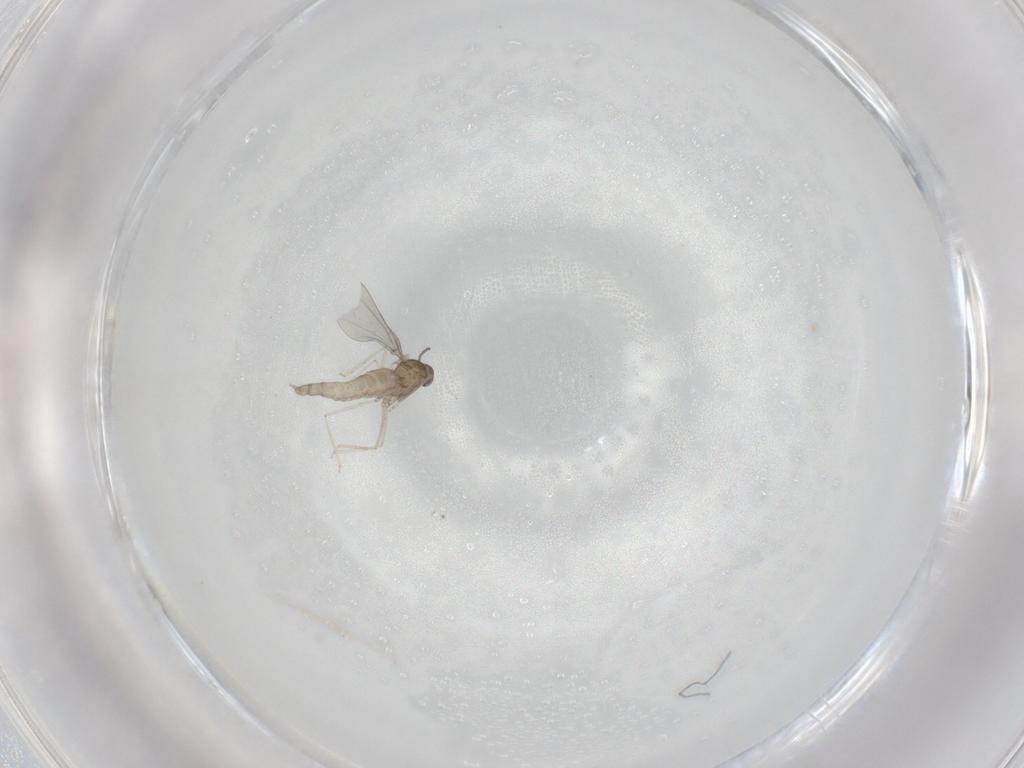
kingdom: Animalia
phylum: Arthropoda
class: Insecta
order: Diptera
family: Cecidomyiidae
